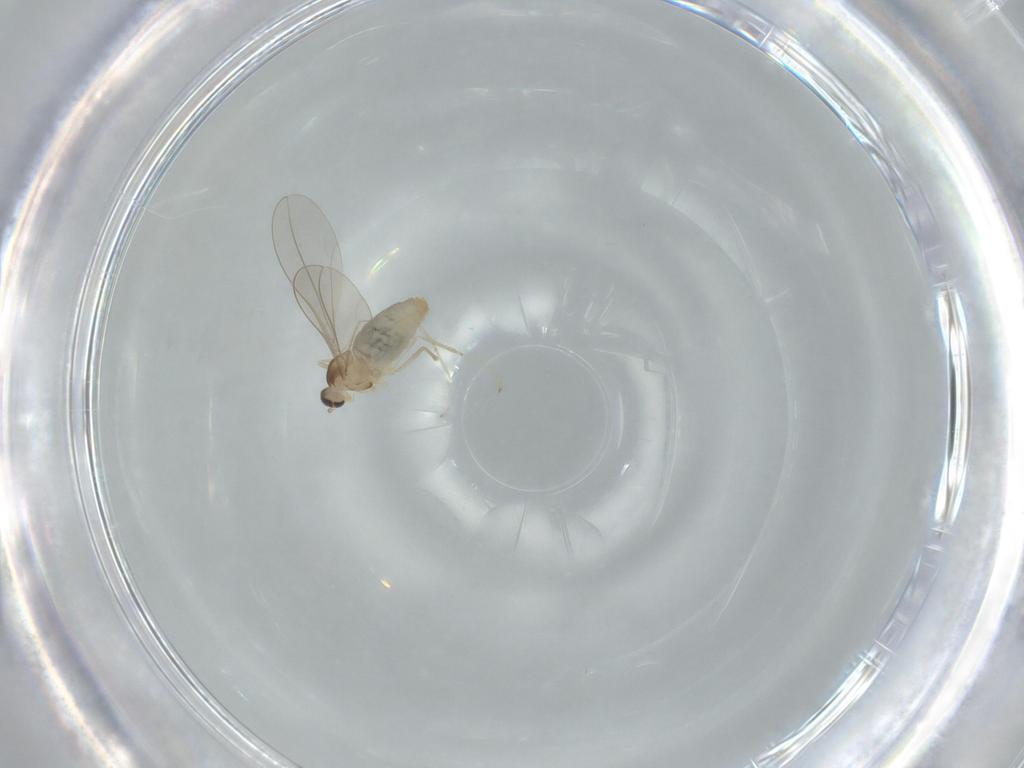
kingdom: Animalia
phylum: Arthropoda
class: Insecta
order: Diptera
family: Cecidomyiidae
